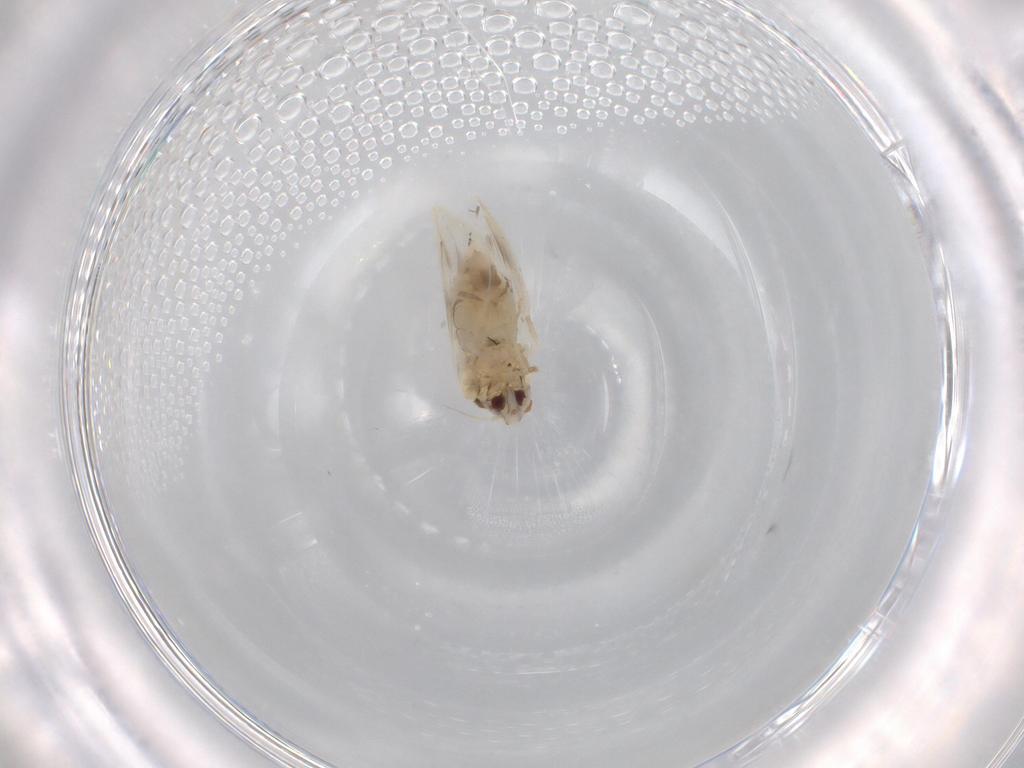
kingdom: Animalia
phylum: Arthropoda
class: Insecta
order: Hemiptera
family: Aleyrodidae
